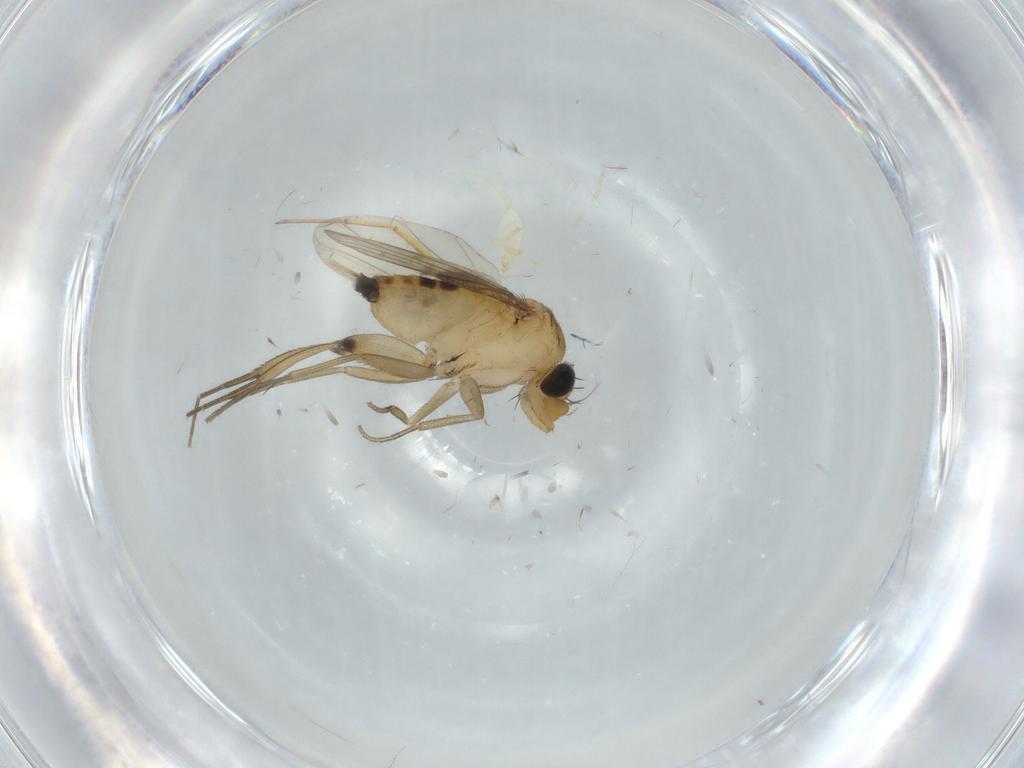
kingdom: Animalia
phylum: Arthropoda
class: Insecta
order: Diptera
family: Phoridae
